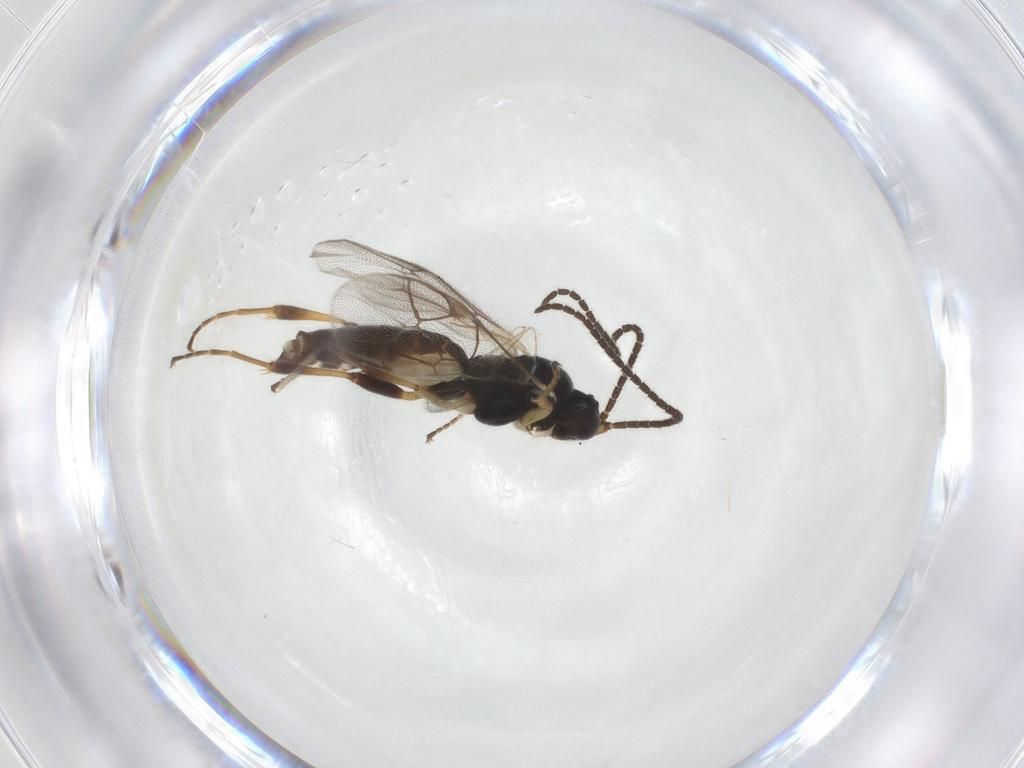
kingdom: Animalia
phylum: Arthropoda
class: Insecta
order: Hymenoptera
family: Ichneumonidae
